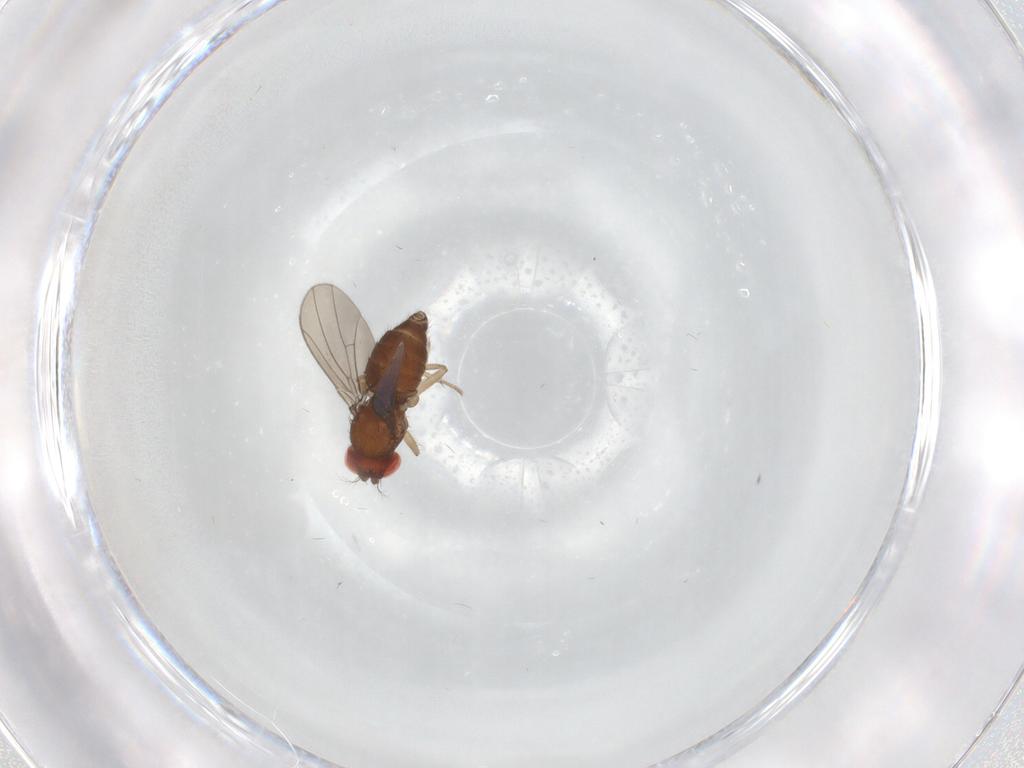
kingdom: Animalia
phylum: Arthropoda
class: Insecta
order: Diptera
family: Drosophilidae
